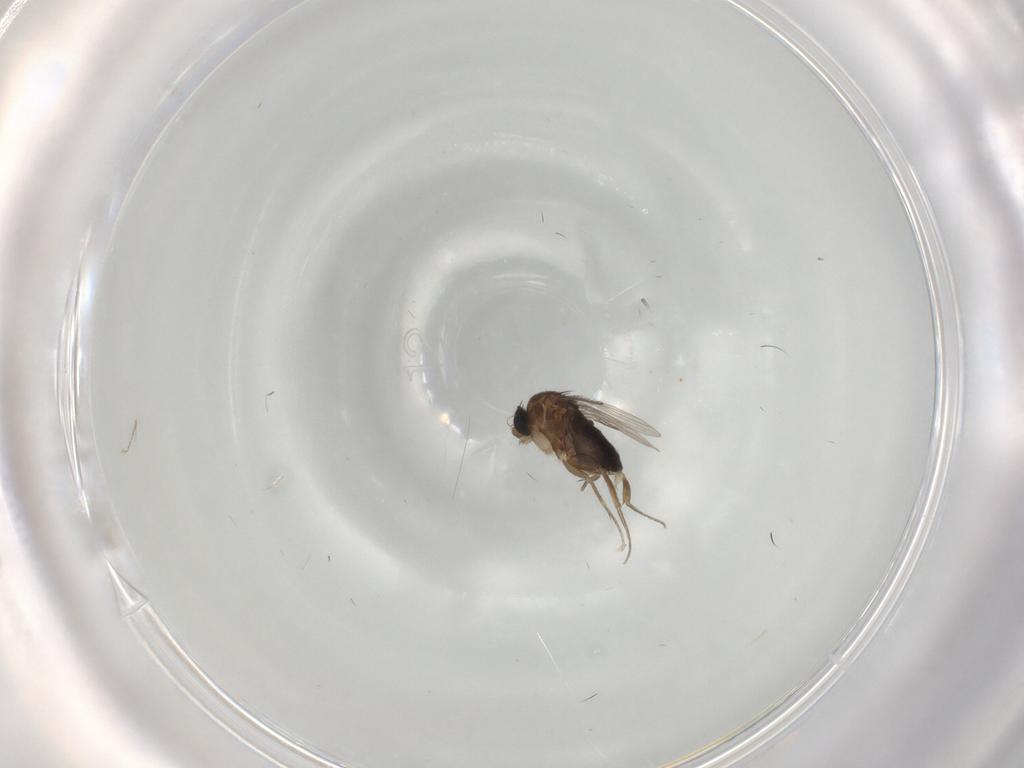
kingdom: Animalia
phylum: Arthropoda
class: Insecta
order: Diptera
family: Phoridae
